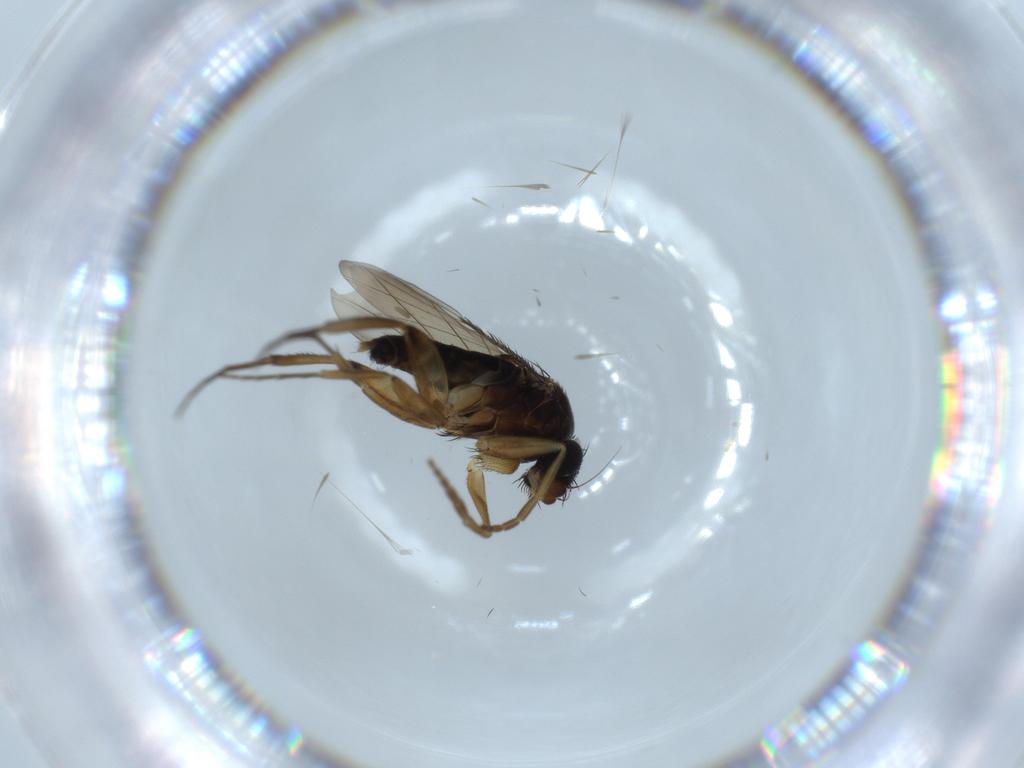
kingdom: Animalia
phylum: Arthropoda
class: Insecta
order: Diptera
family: Phoridae
